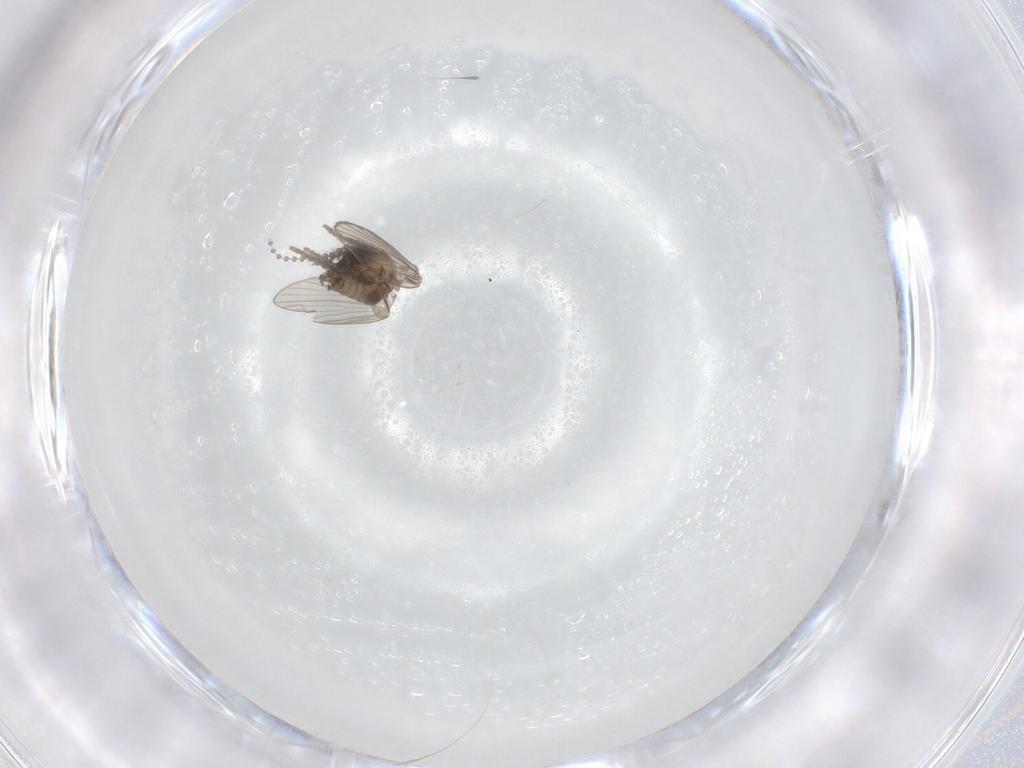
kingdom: Animalia
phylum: Arthropoda
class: Insecta
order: Diptera
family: Psychodidae
